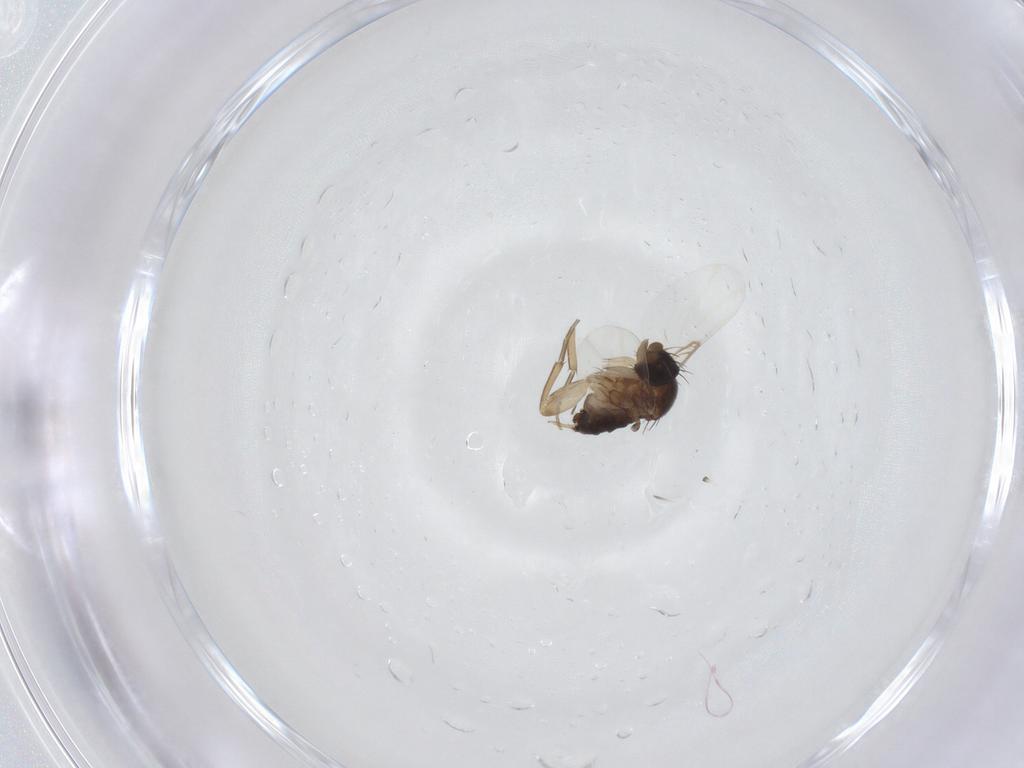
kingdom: Animalia
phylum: Arthropoda
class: Insecta
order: Diptera
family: Phoridae
